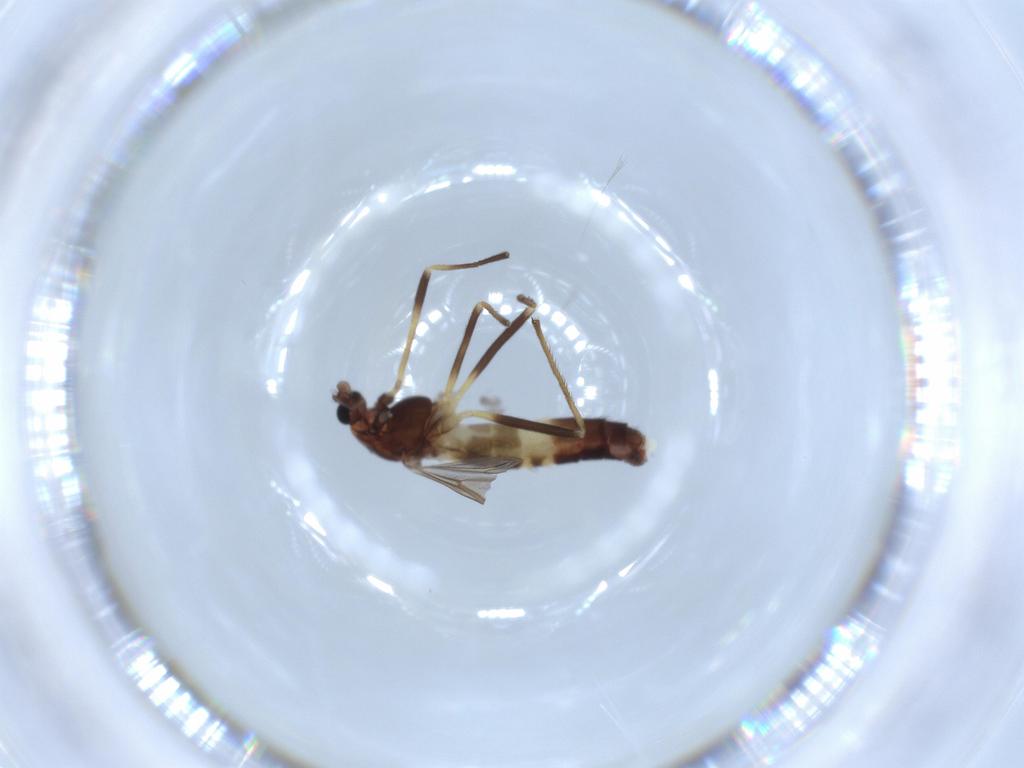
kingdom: Animalia
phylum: Arthropoda
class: Insecta
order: Diptera
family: Chironomidae
